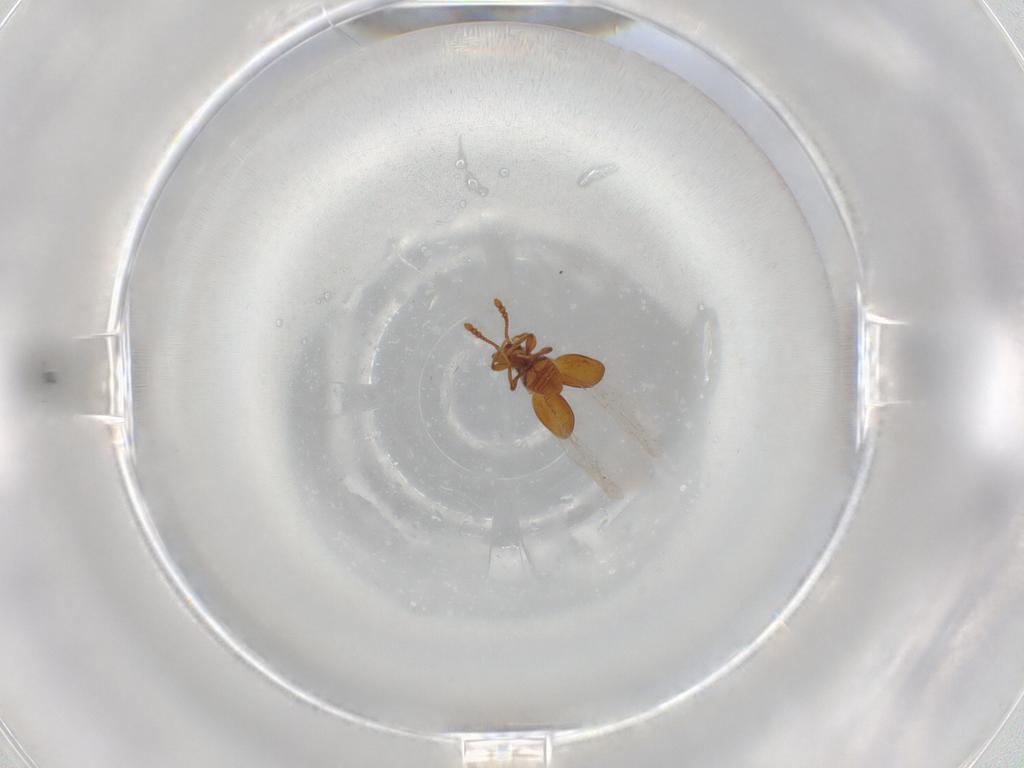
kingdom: Animalia
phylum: Arthropoda
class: Insecta
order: Coleoptera
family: Staphylinidae
